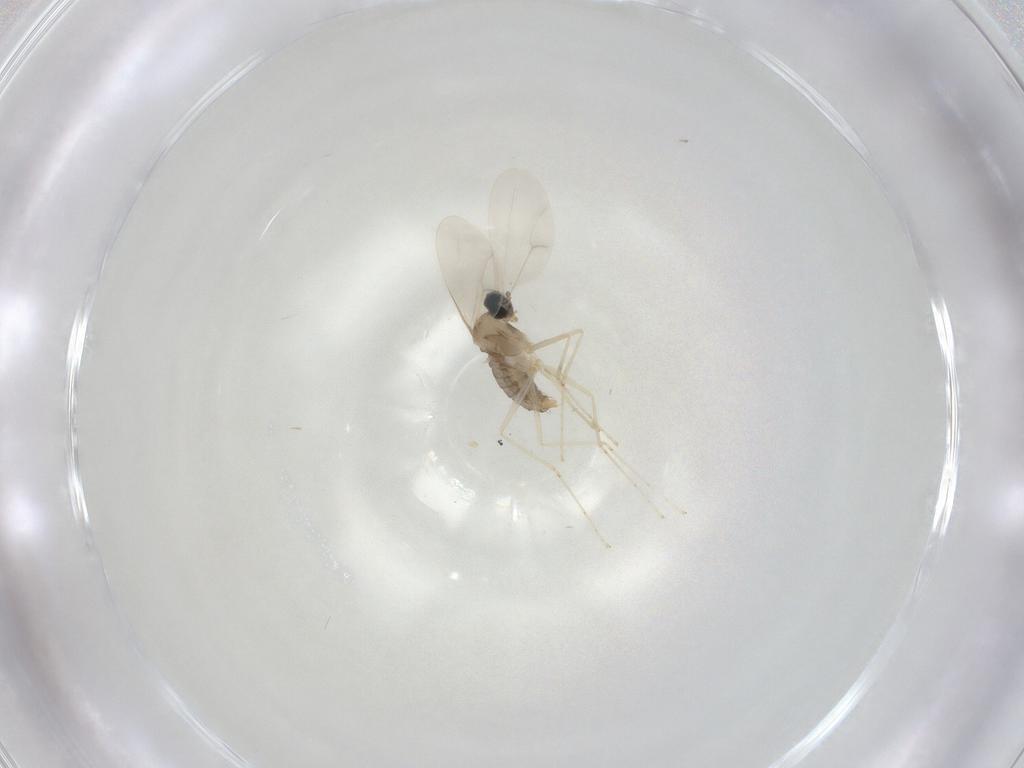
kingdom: Animalia
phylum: Arthropoda
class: Insecta
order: Diptera
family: Cecidomyiidae
